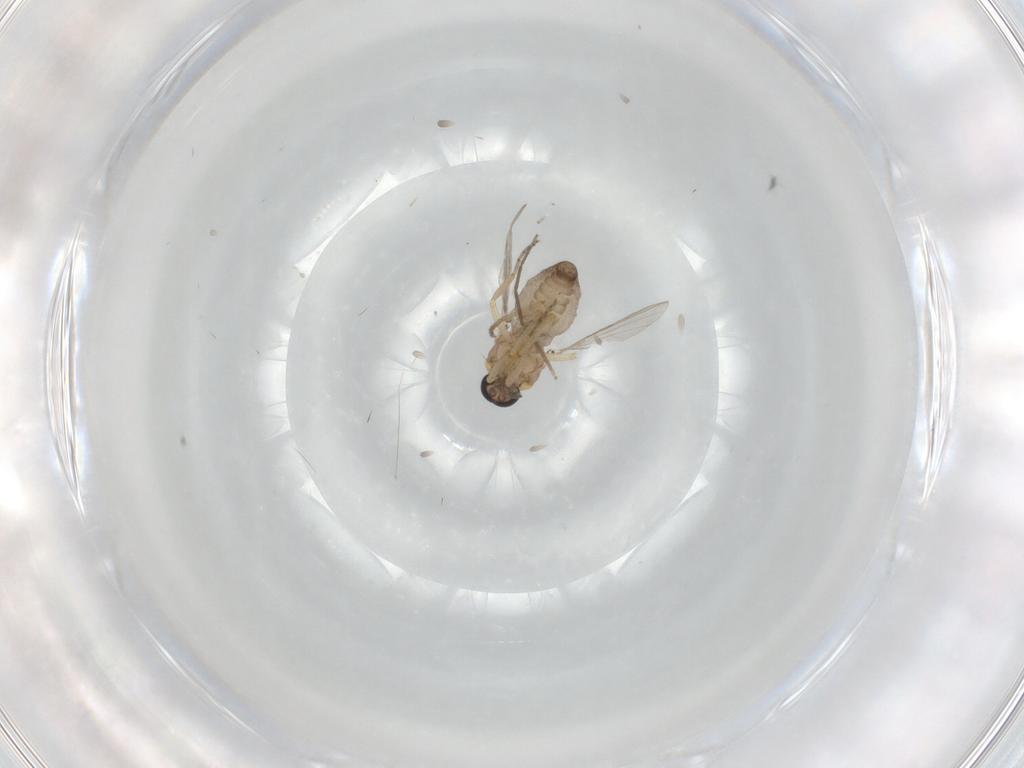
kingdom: Animalia
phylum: Arthropoda
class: Insecta
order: Diptera
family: Ceratopogonidae
